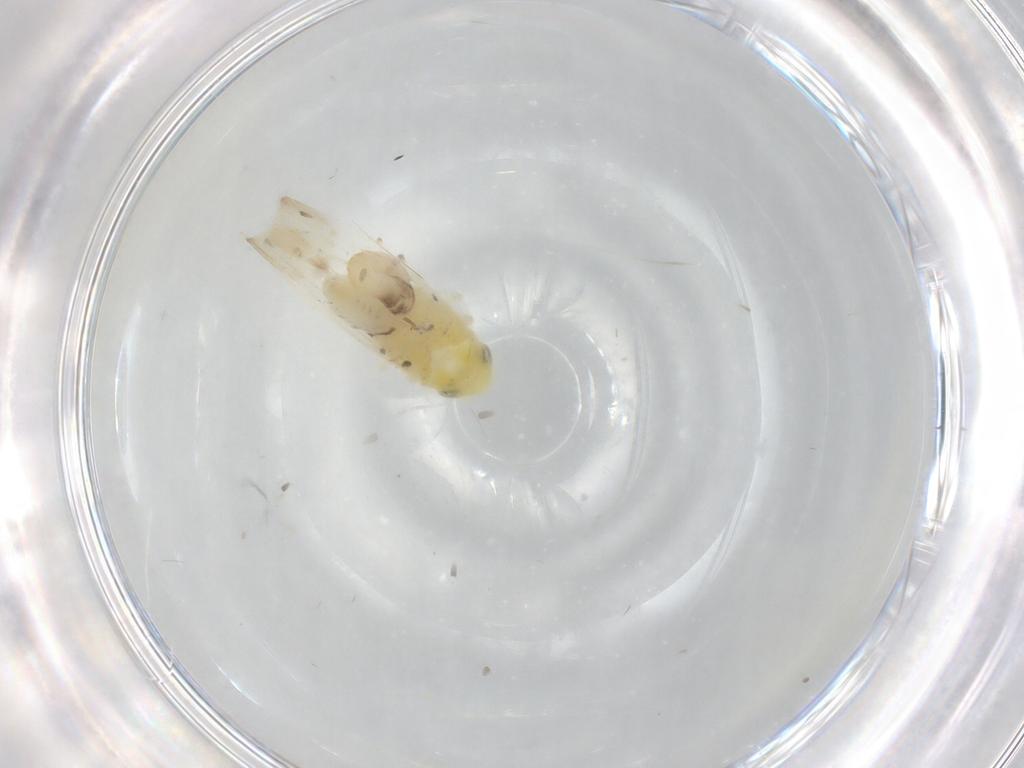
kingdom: Animalia
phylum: Arthropoda
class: Insecta
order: Hemiptera
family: Cicadellidae
